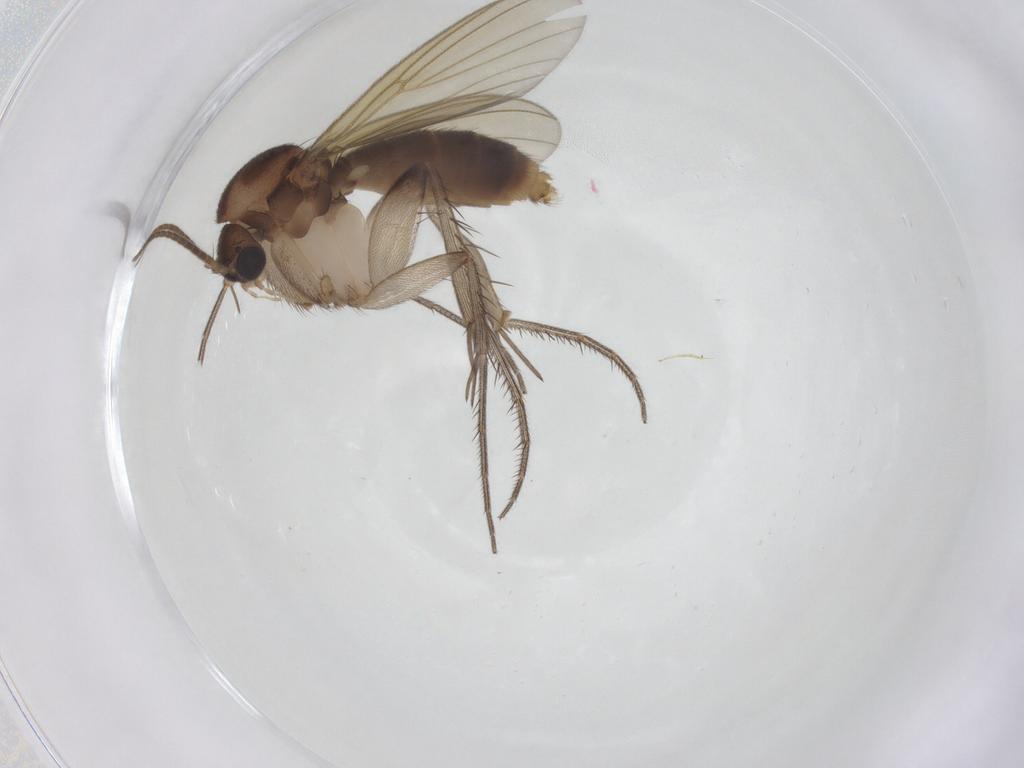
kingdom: Animalia
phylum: Arthropoda
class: Insecta
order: Diptera
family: Mycetophilidae
